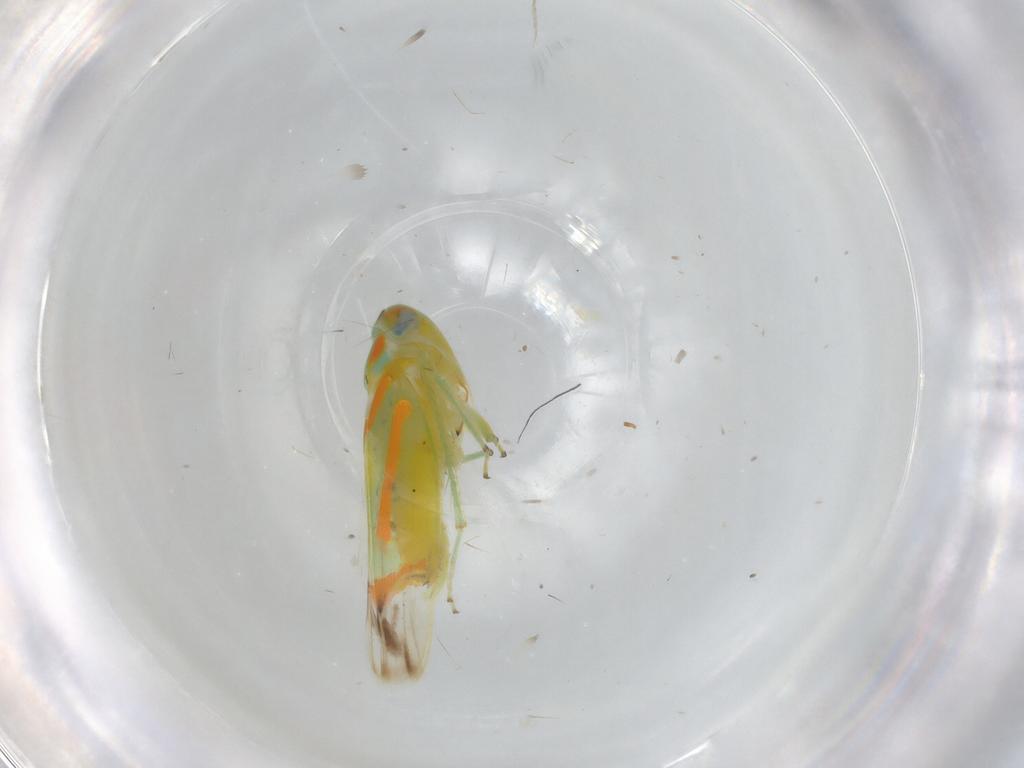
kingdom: Animalia
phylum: Arthropoda
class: Insecta
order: Hemiptera
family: Cicadellidae
